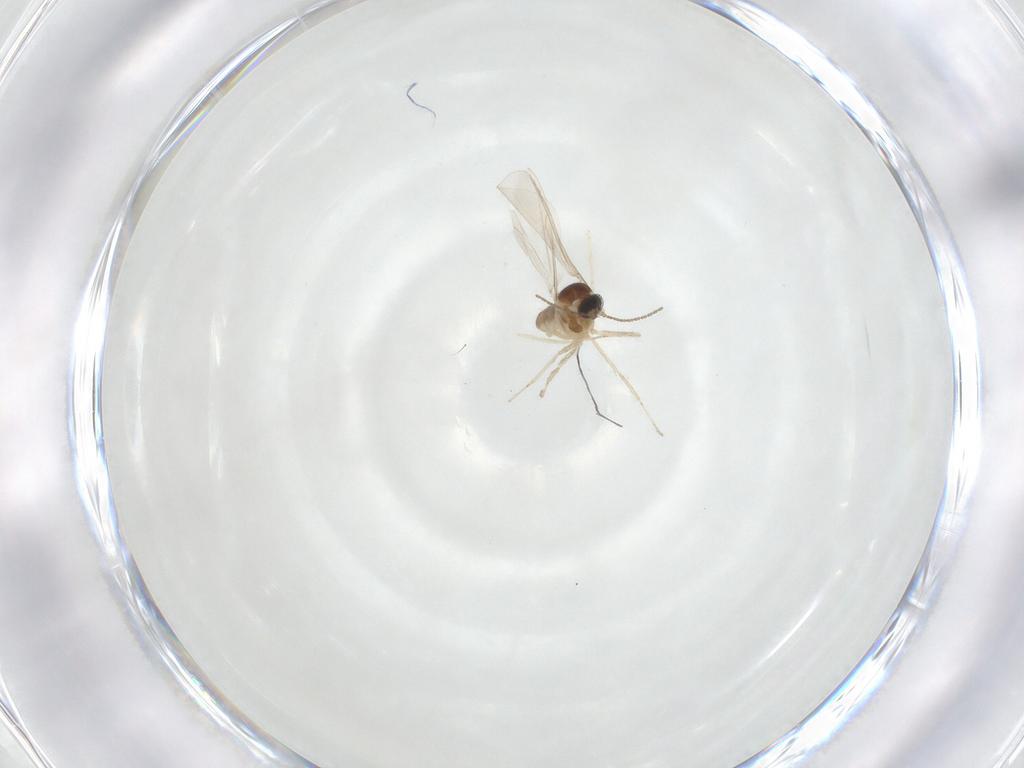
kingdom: Animalia
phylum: Arthropoda
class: Insecta
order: Diptera
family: Cecidomyiidae
